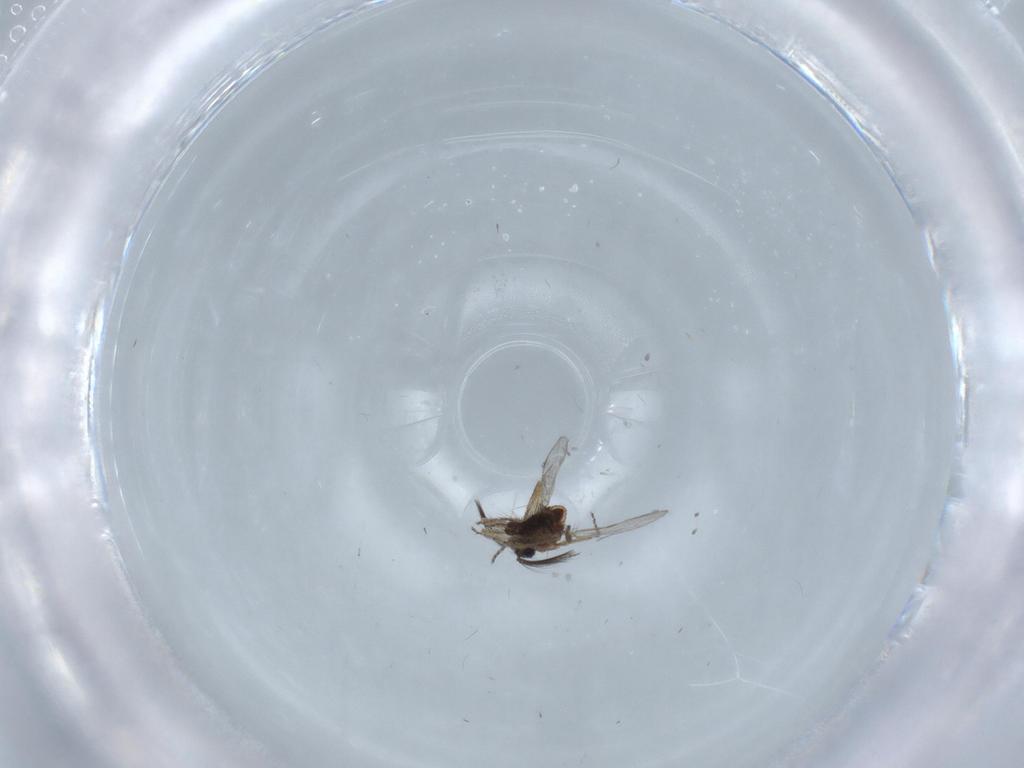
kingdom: Animalia
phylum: Arthropoda
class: Insecta
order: Diptera
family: Ceratopogonidae
